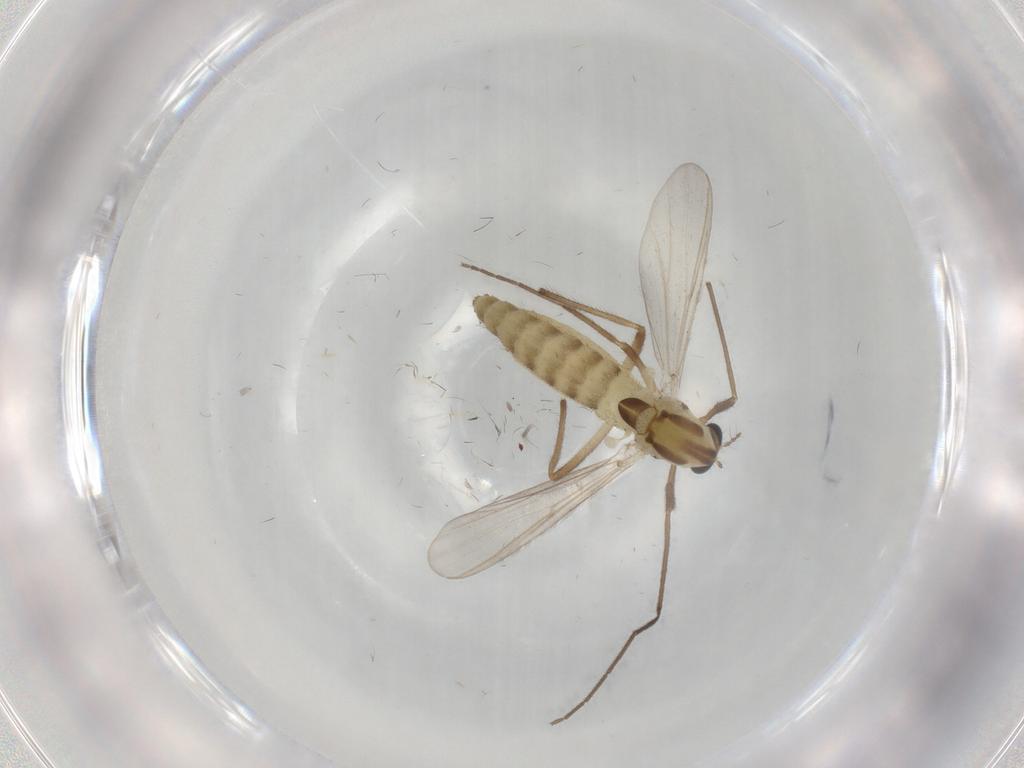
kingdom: Animalia
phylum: Arthropoda
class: Insecta
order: Diptera
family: Chironomidae
